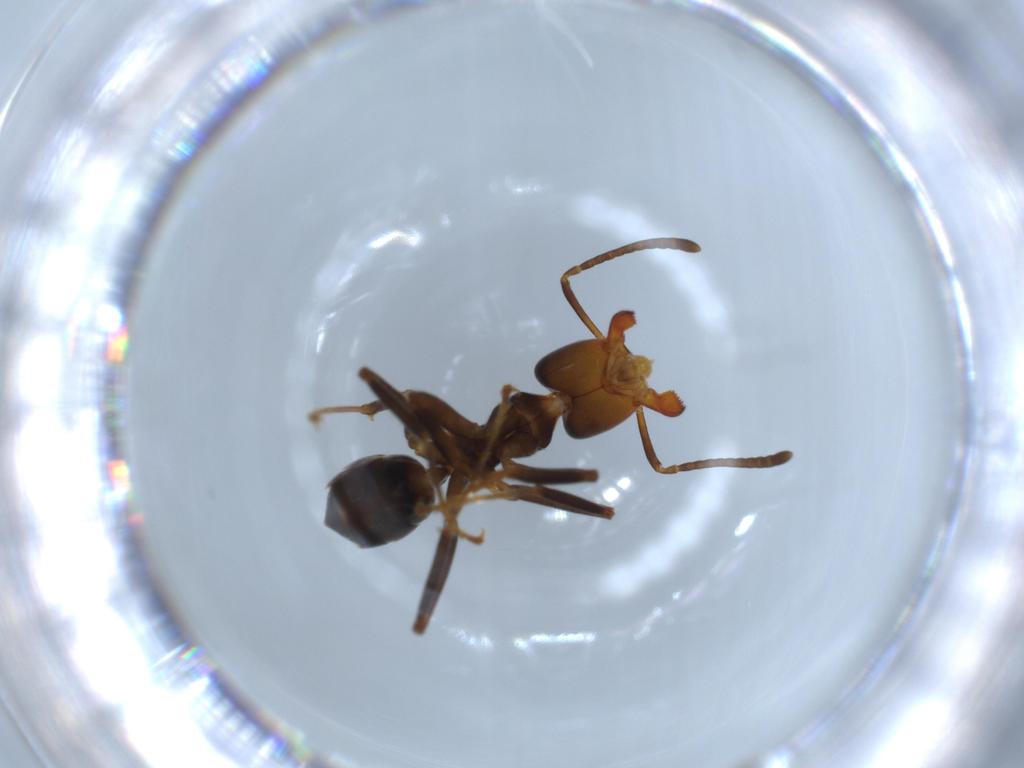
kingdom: Animalia
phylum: Arthropoda
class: Insecta
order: Hymenoptera
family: Formicidae
